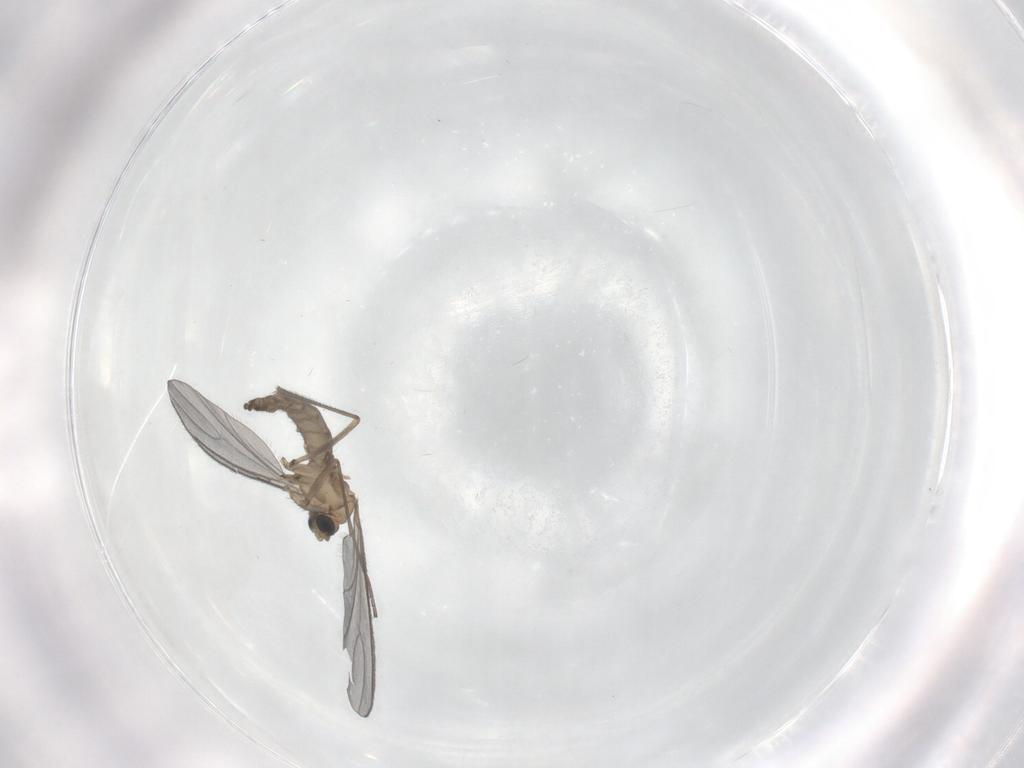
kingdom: Animalia
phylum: Arthropoda
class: Insecta
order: Diptera
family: Sciaridae
